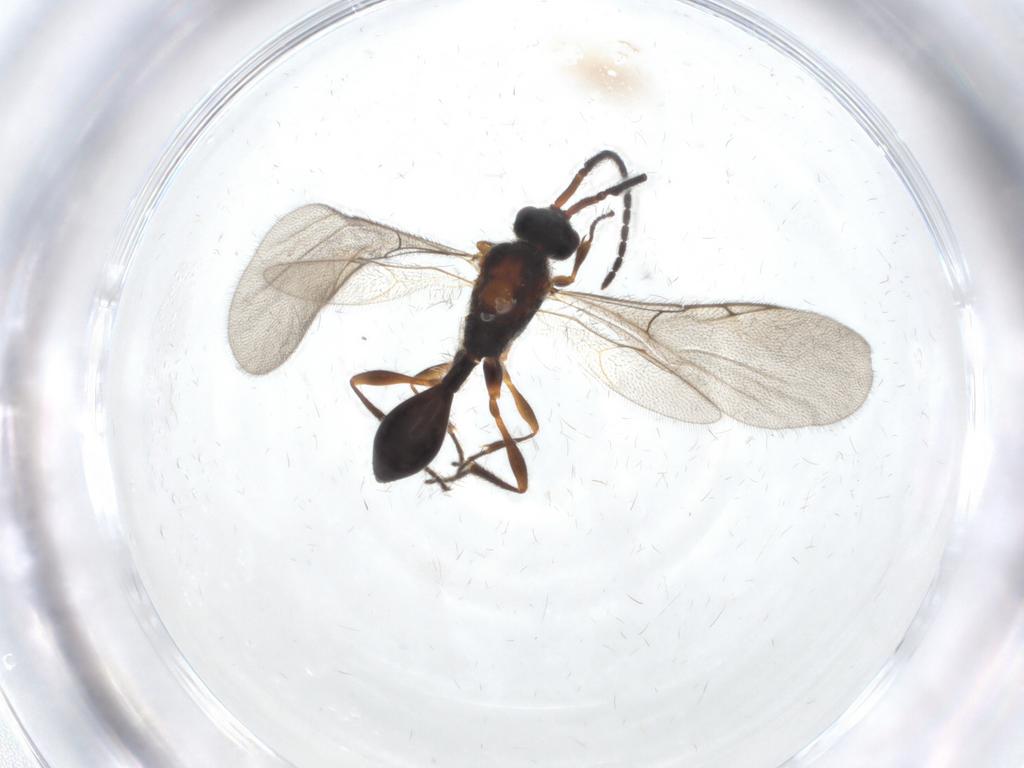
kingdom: Animalia
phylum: Arthropoda
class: Insecta
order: Hymenoptera
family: Diapriidae
